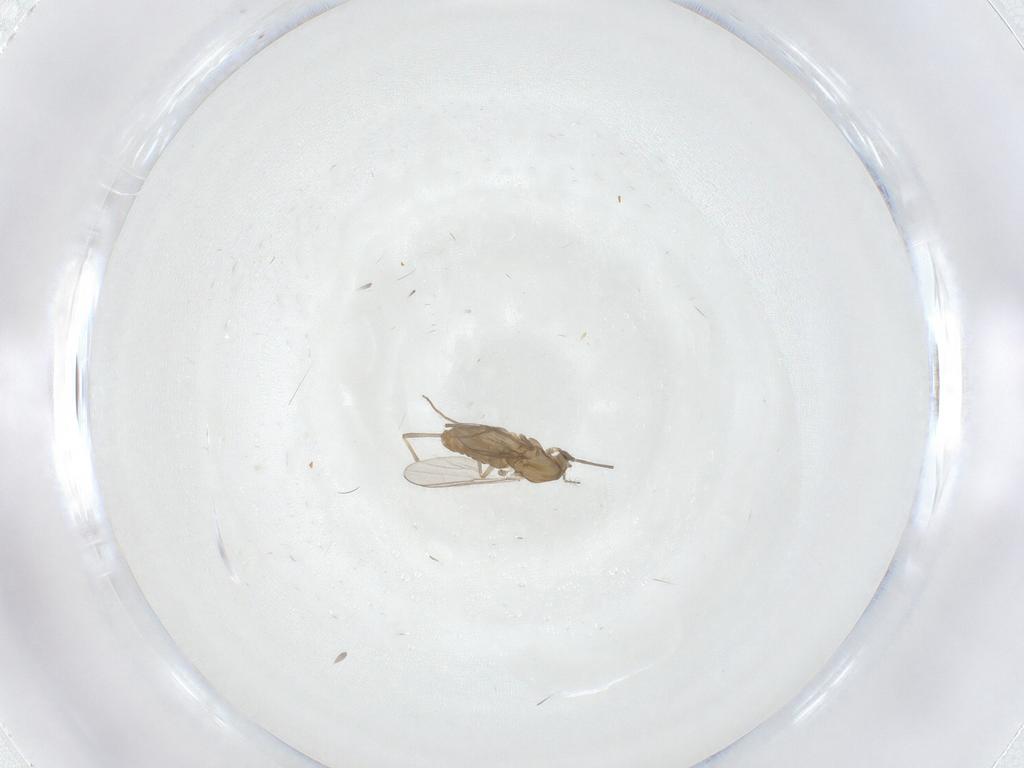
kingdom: Animalia
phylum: Arthropoda
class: Insecta
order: Diptera
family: Chironomidae
